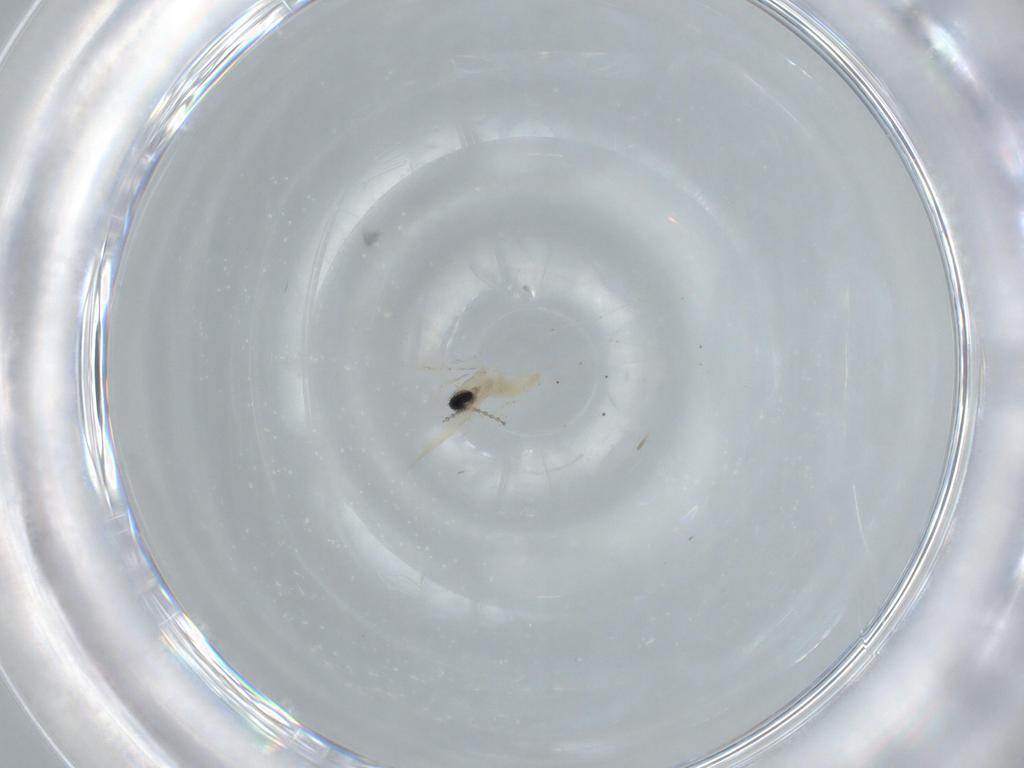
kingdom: Animalia
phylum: Arthropoda
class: Insecta
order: Diptera
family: Cecidomyiidae
